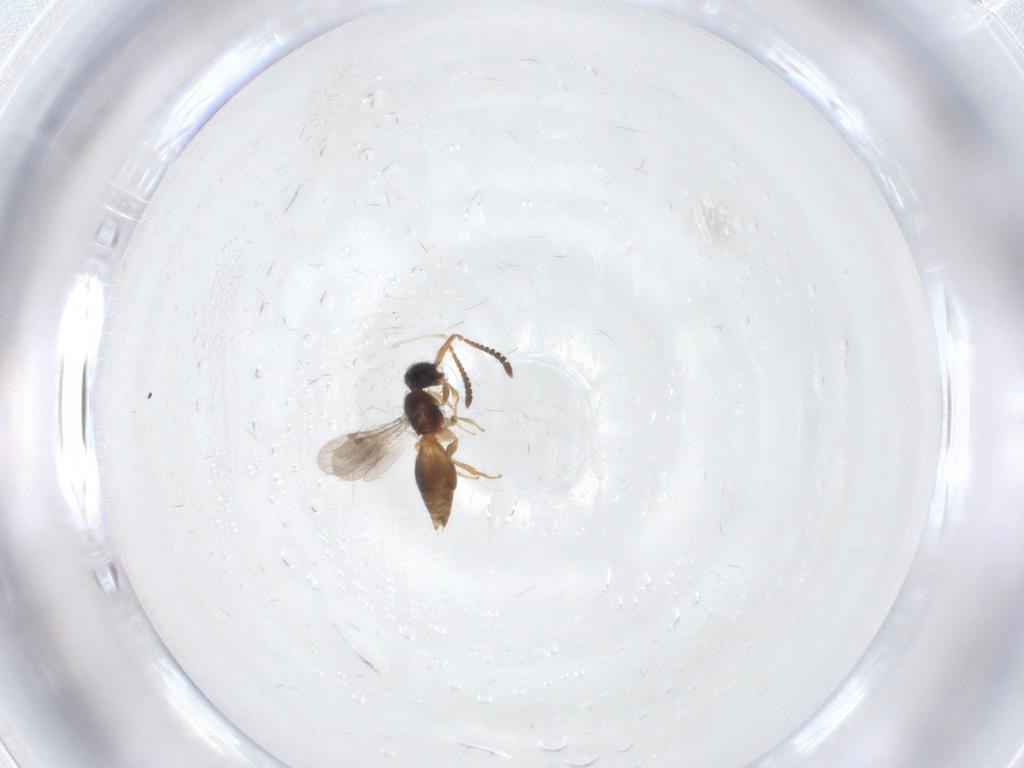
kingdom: Animalia
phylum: Arthropoda
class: Insecta
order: Hymenoptera
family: Megaspilidae
